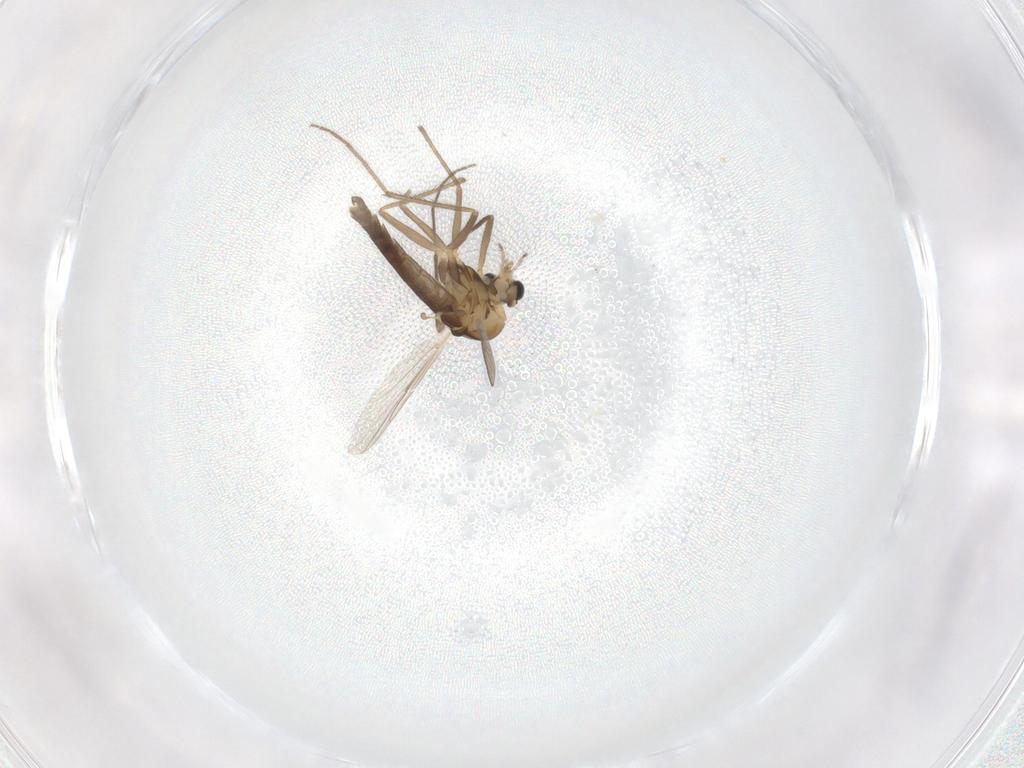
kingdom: Animalia
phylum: Arthropoda
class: Insecta
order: Diptera
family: Chironomidae
